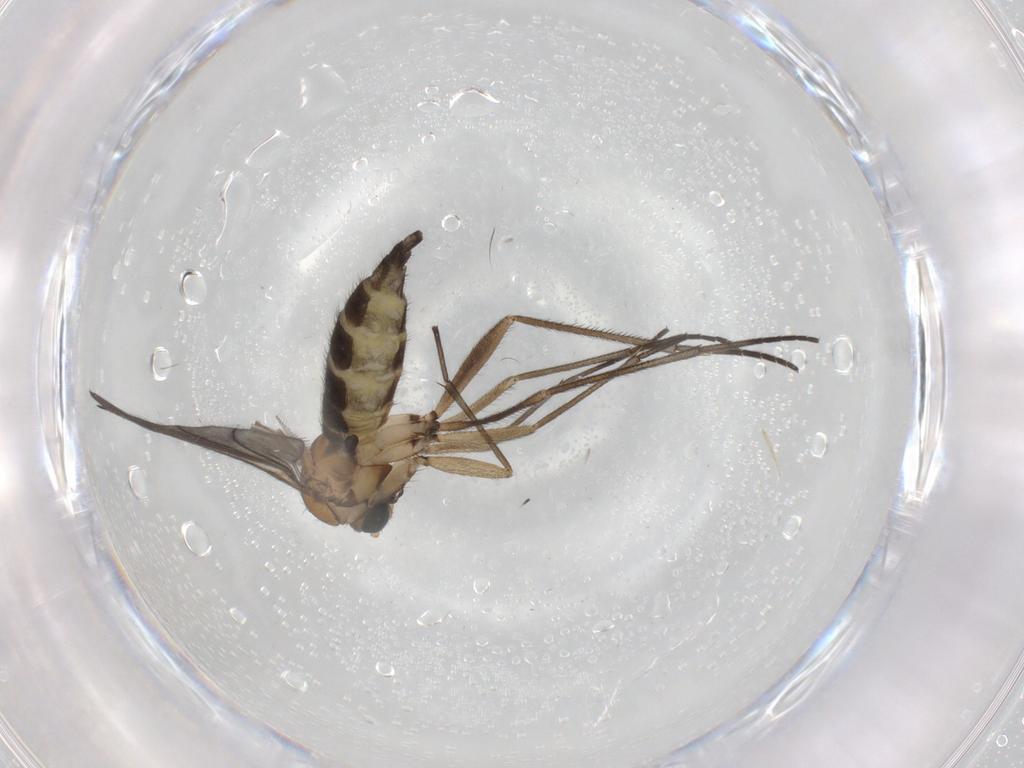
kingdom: Animalia
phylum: Arthropoda
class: Insecta
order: Diptera
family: Sciaridae
